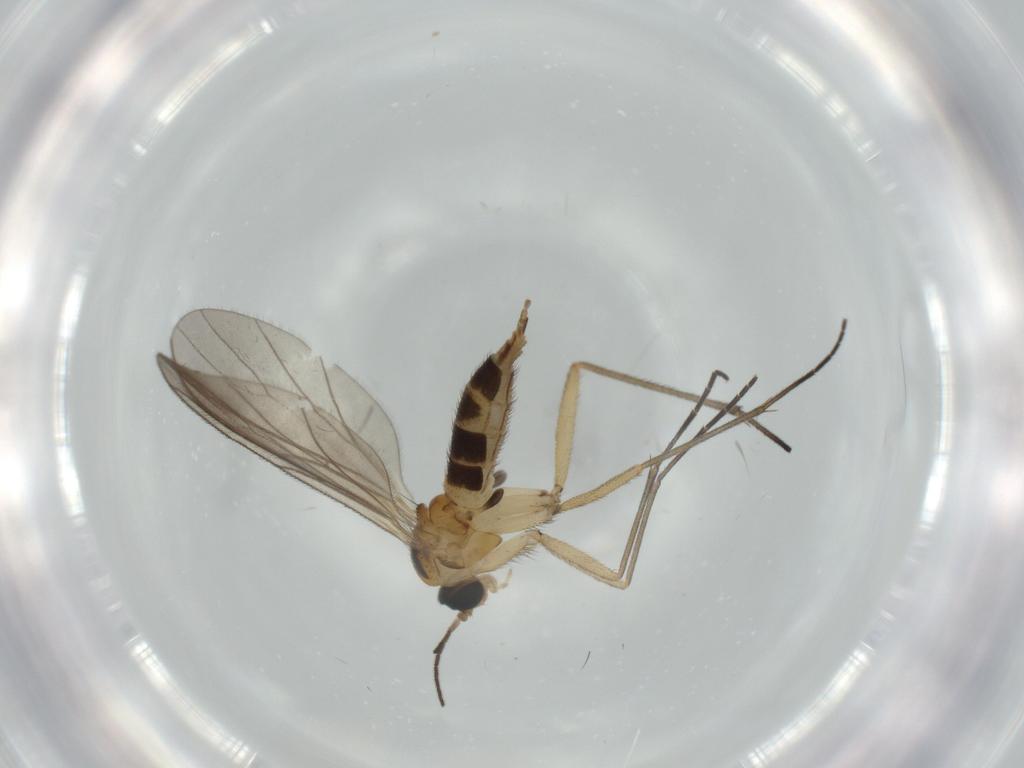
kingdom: Animalia
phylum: Arthropoda
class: Insecta
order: Diptera
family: Sciaridae
